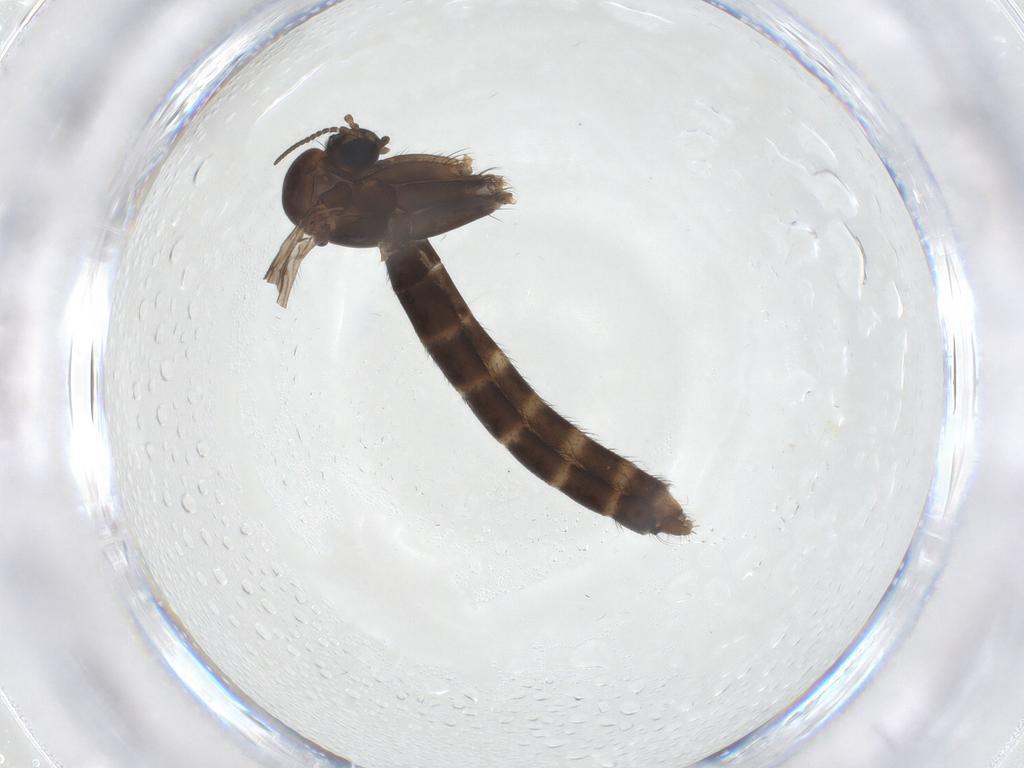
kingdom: Animalia
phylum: Arthropoda
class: Insecta
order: Diptera
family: Ditomyiidae
